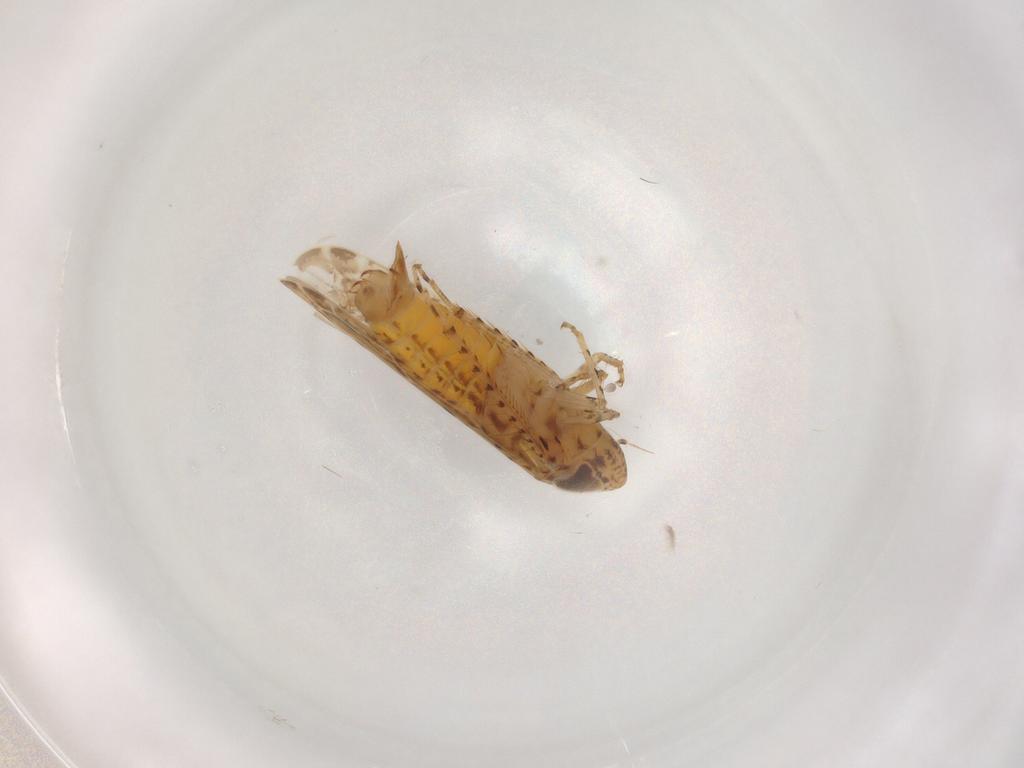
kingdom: Animalia
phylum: Arthropoda
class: Insecta
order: Hemiptera
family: Cicadellidae
